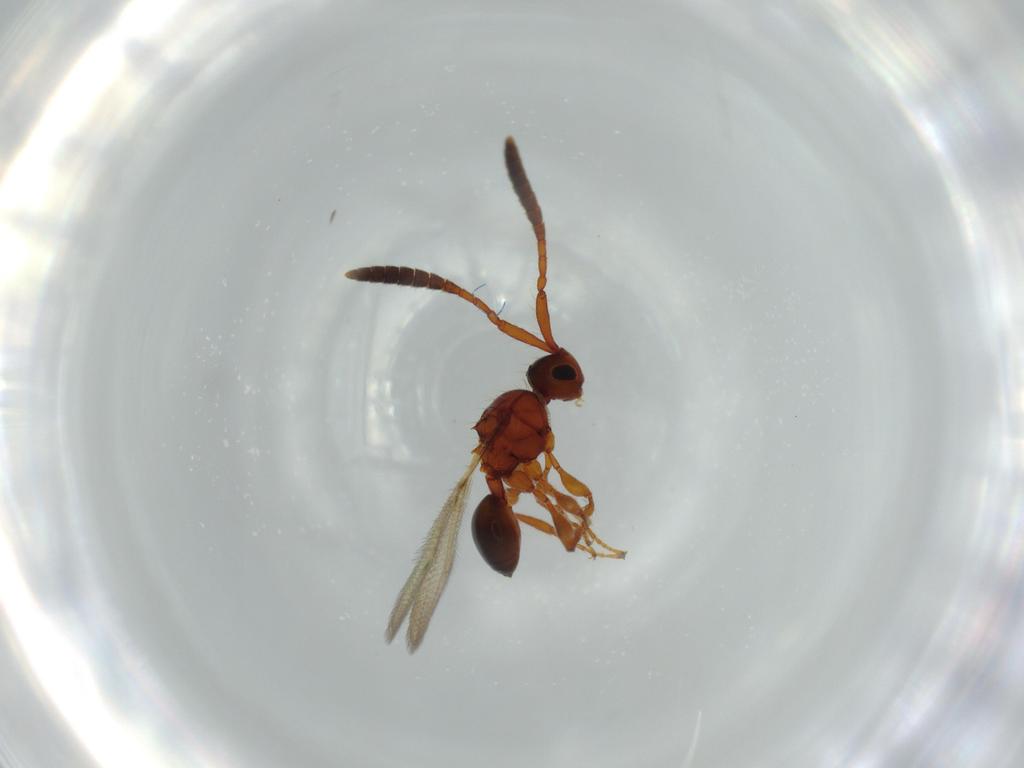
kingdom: Animalia
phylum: Arthropoda
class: Insecta
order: Hymenoptera
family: Diapriidae
